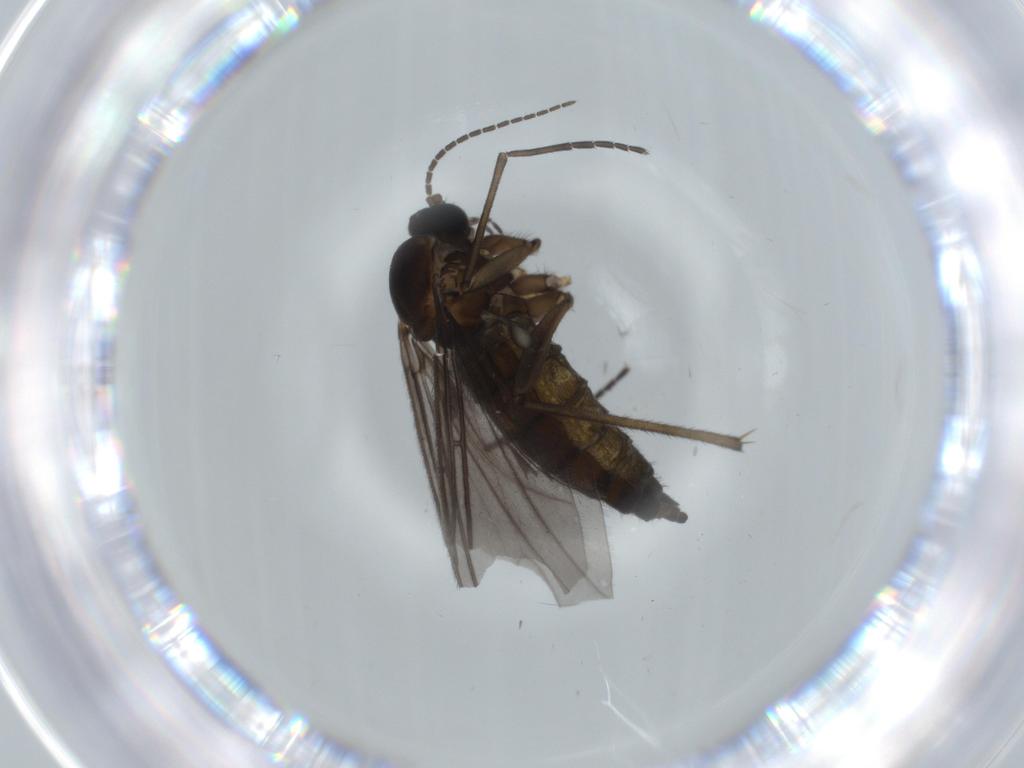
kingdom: Animalia
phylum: Arthropoda
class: Insecta
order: Diptera
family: Sciaridae
